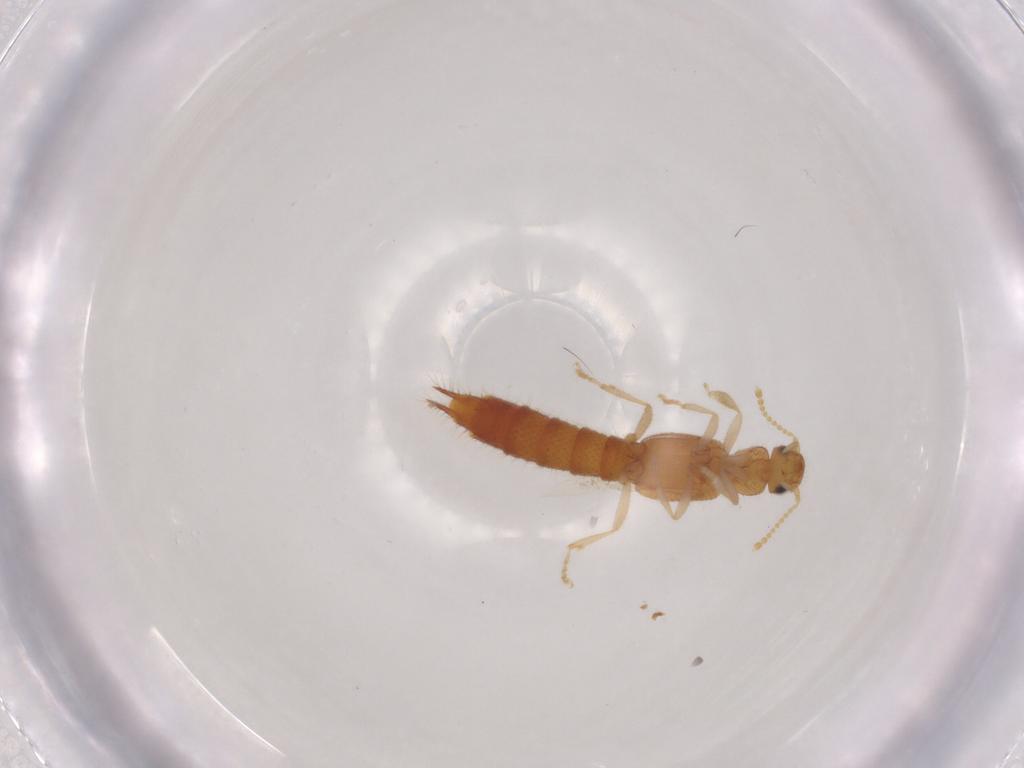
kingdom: Animalia
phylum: Arthropoda
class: Insecta
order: Coleoptera
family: Staphylinidae
